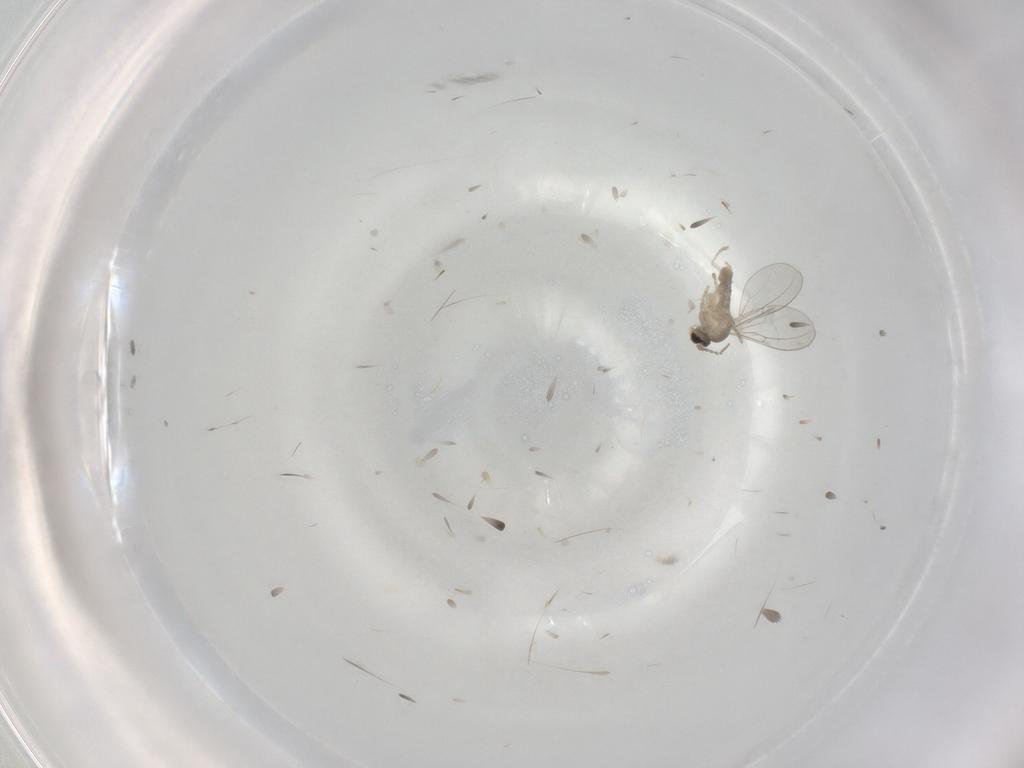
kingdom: Animalia
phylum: Arthropoda
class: Insecta
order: Diptera
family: Cecidomyiidae
